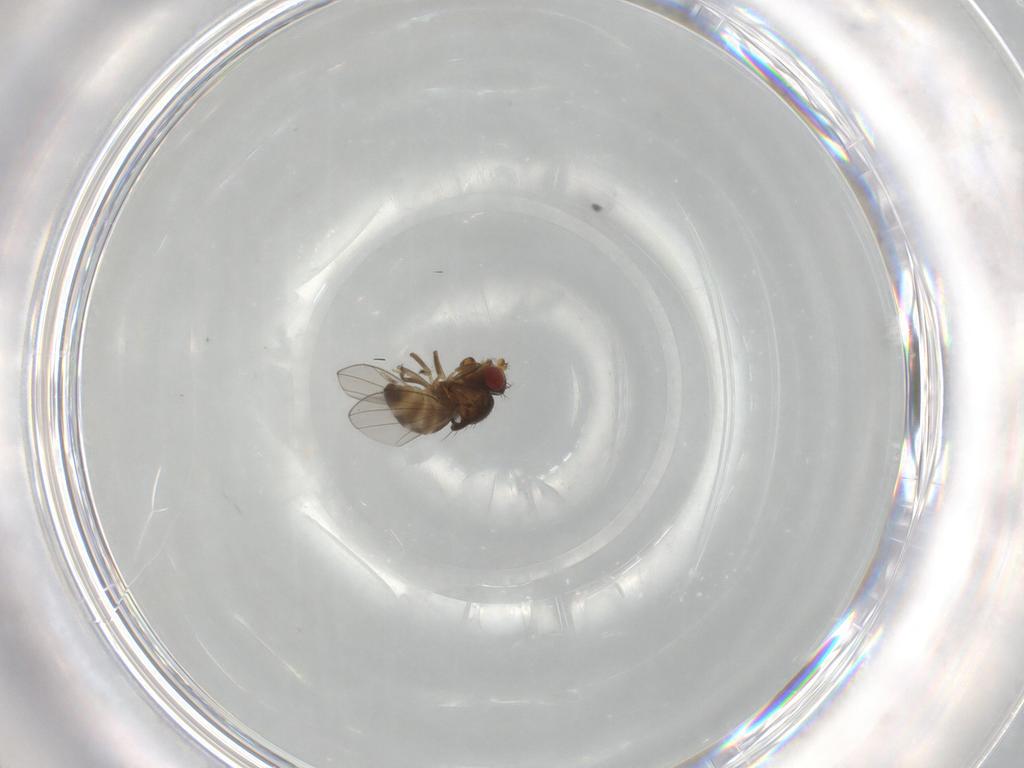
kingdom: Animalia
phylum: Arthropoda
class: Insecta
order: Diptera
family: Ephydridae
